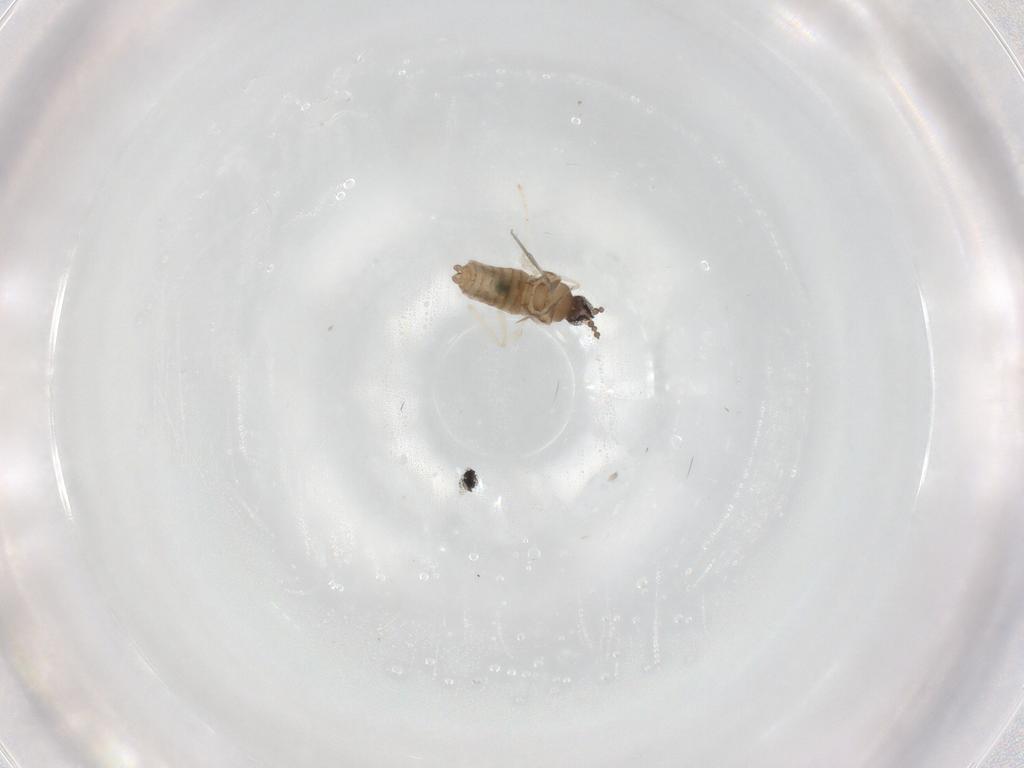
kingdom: Animalia
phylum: Arthropoda
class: Insecta
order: Diptera
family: Cecidomyiidae
